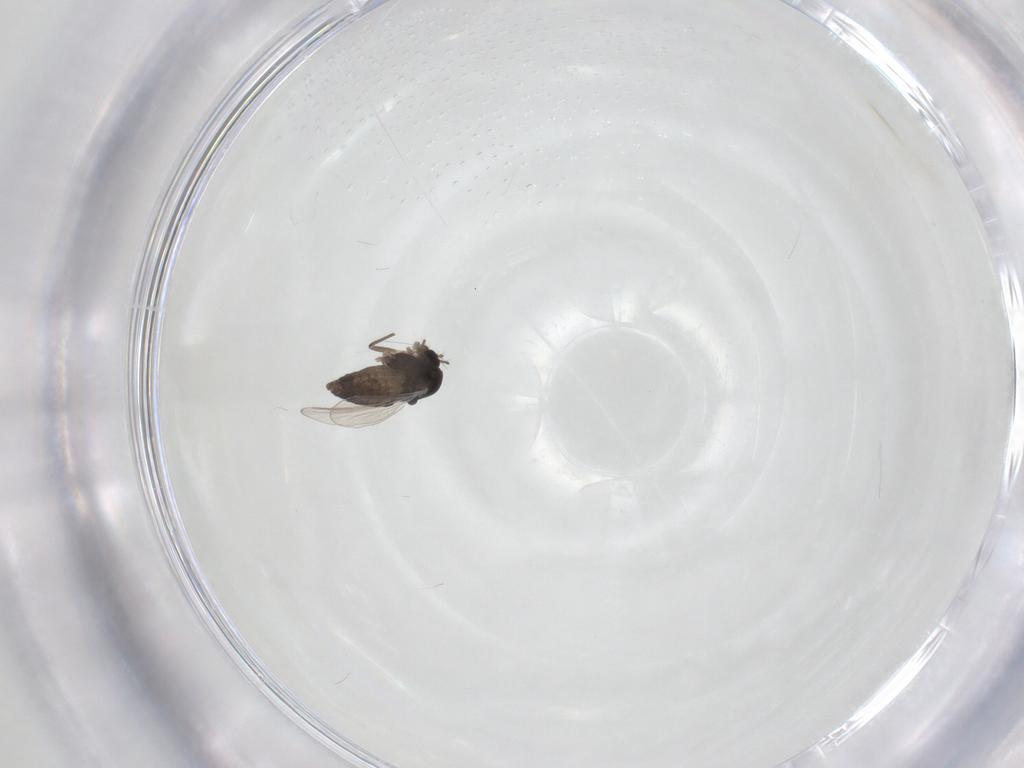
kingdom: Animalia
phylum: Arthropoda
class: Insecta
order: Diptera
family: Chironomidae
